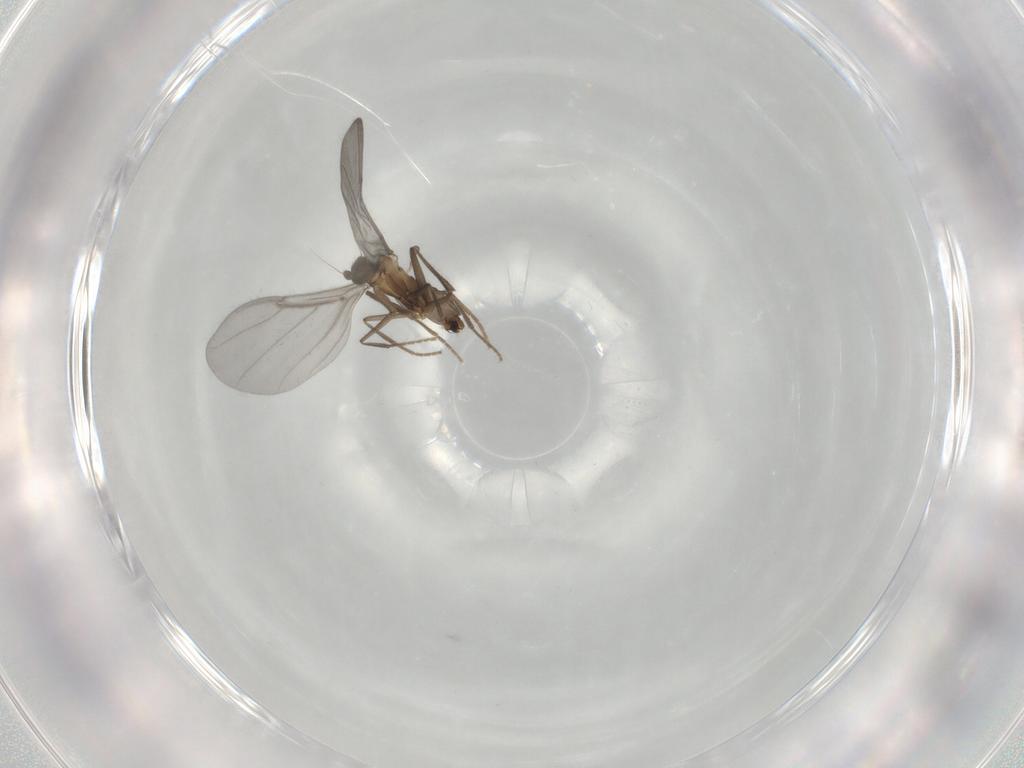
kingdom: Animalia
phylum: Arthropoda
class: Insecta
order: Diptera
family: Phoridae
